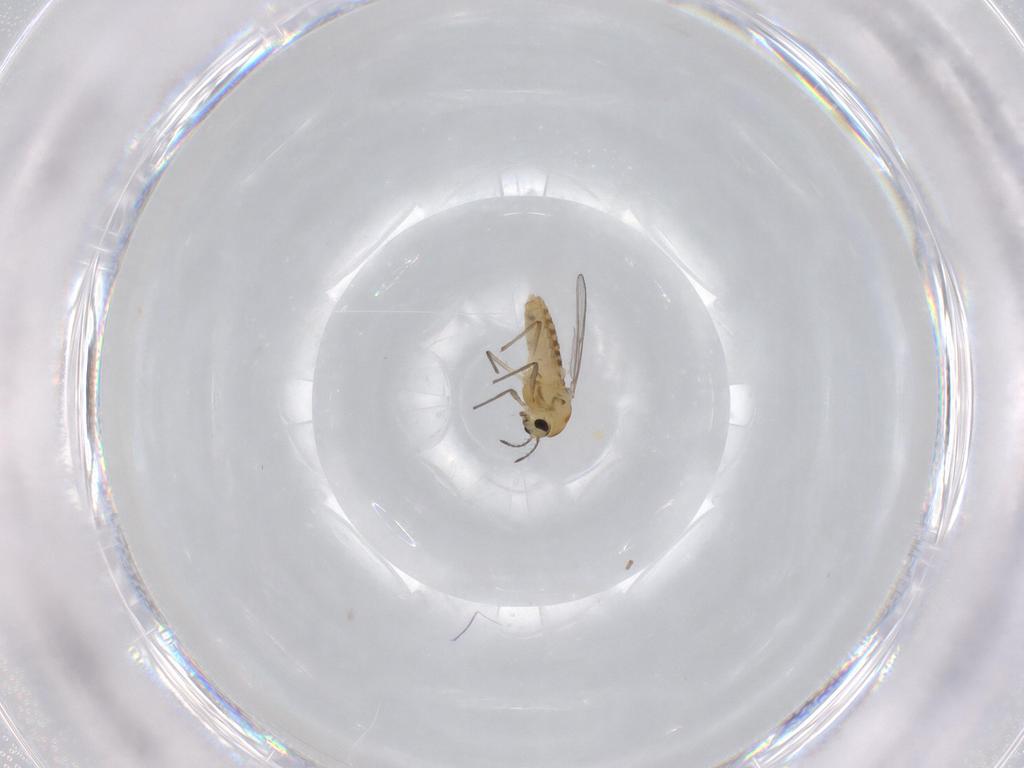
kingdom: Animalia
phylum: Arthropoda
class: Insecta
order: Diptera
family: Chironomidae
